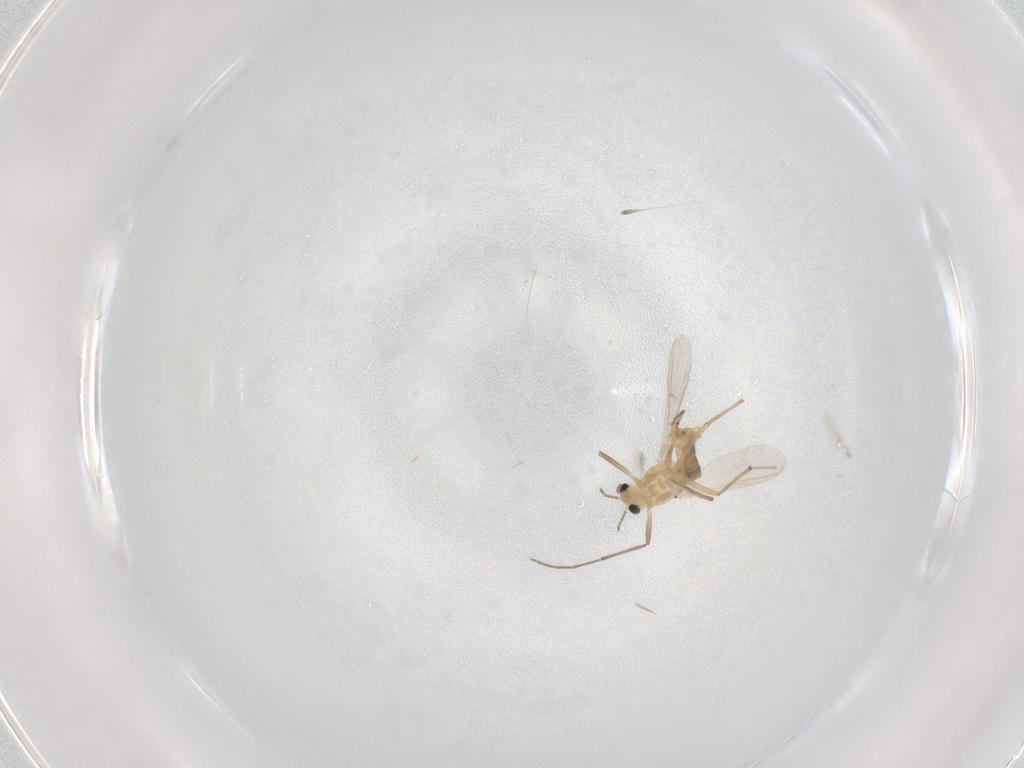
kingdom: Animalia
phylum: Arthropoda
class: Insecta
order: Diptera
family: Chironomidae
